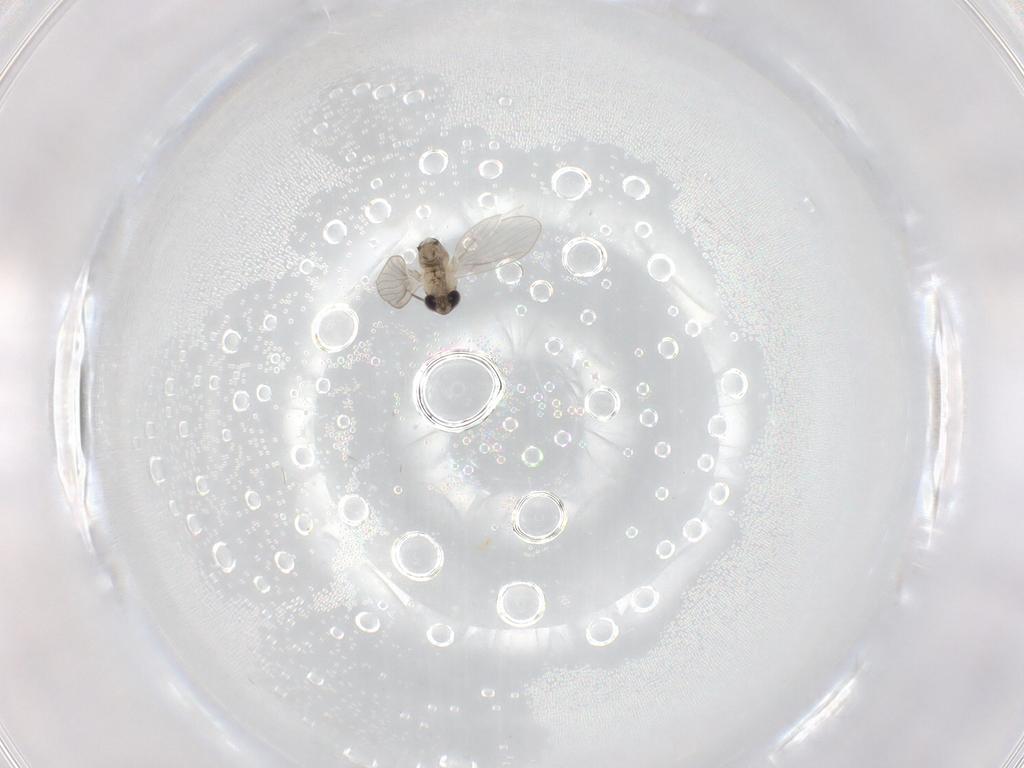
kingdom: Animalia
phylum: Arthropoda
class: Insecta
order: Diptera
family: Psychodidae
